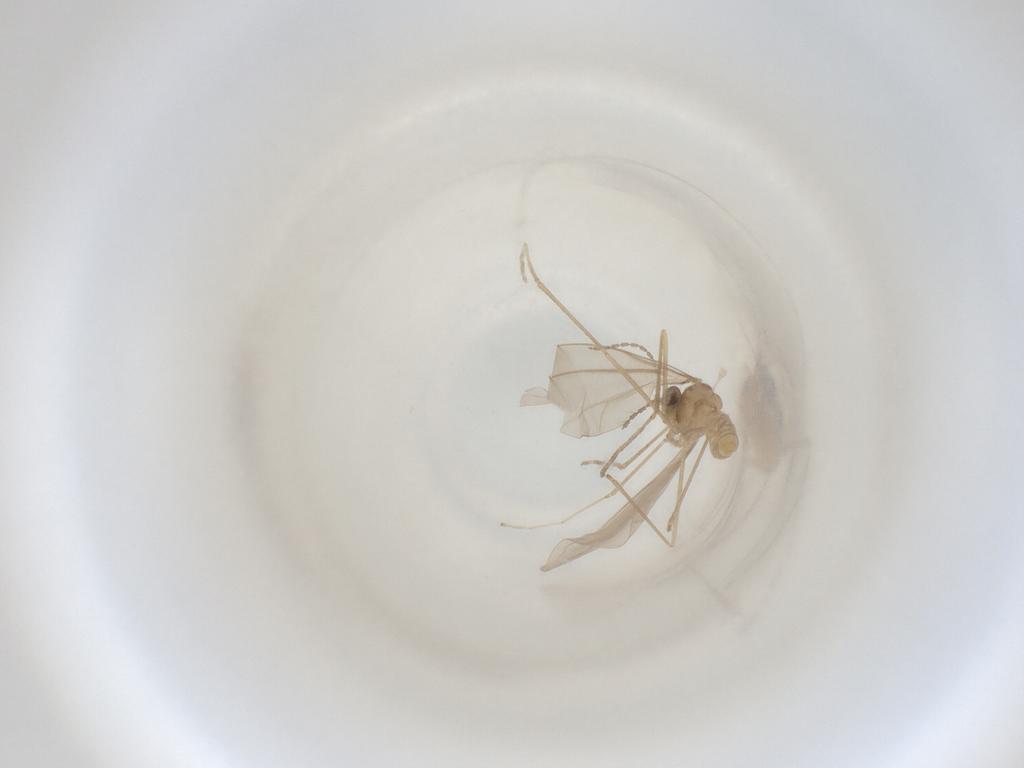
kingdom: Animalia
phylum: Arthropoda
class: Insecta
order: Diptera
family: Cecidomyiidae
